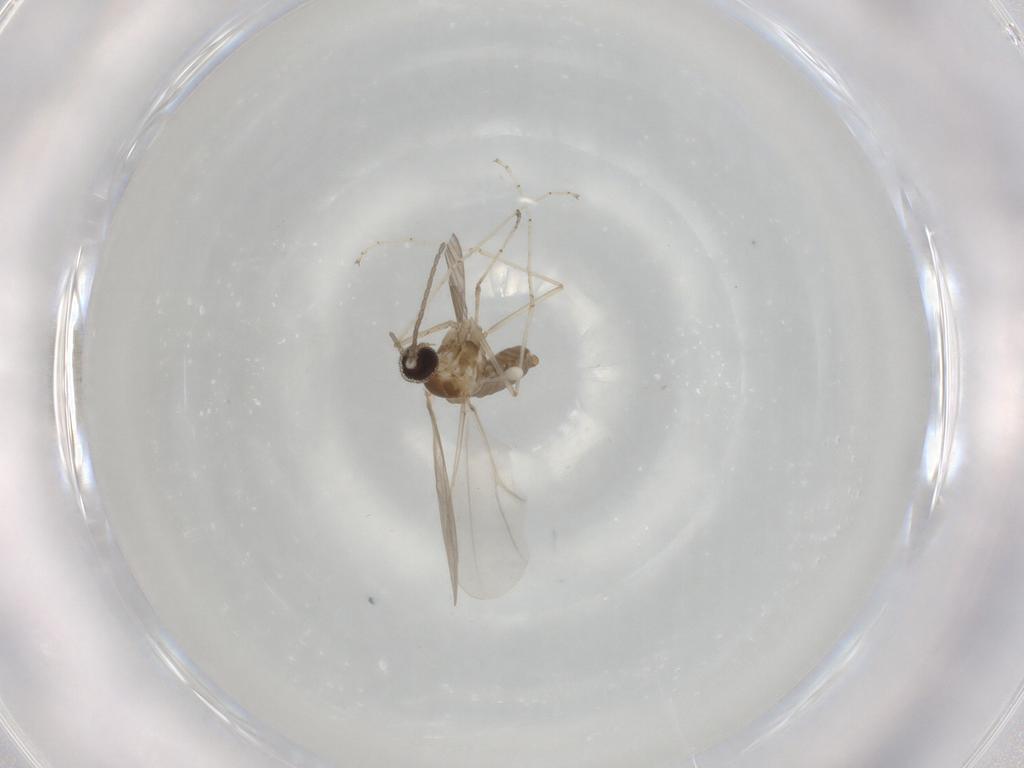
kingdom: Animalia
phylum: Arthropoda
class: Insecta
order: Diptera
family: Cecidomyiidae
